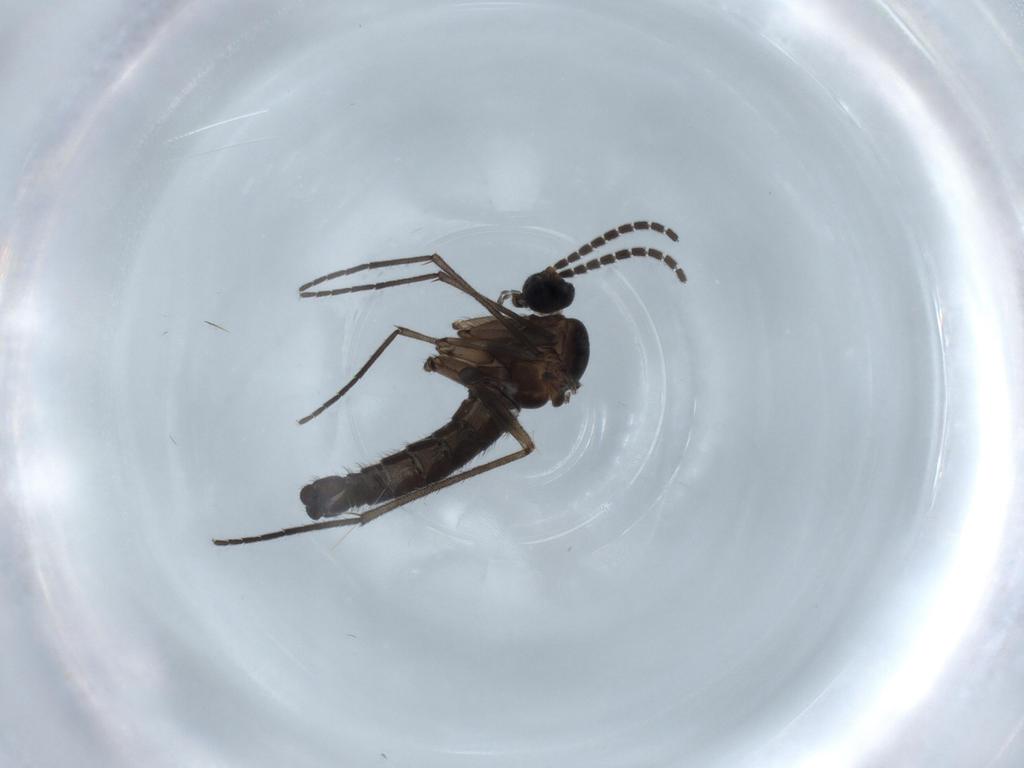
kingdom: Animalia
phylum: Arthropoda
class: Insecta
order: Diptera
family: Sciaridae
